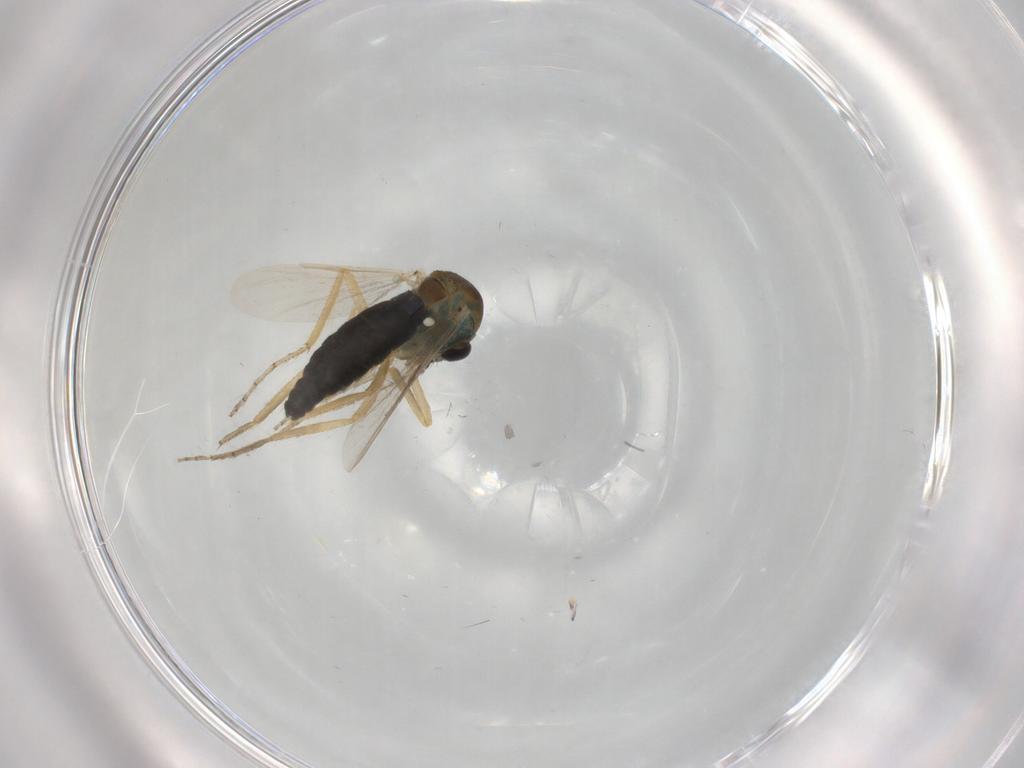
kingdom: Animalia
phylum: Arthropoda
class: Insecta
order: Diptera
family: Ceratopogonidae
